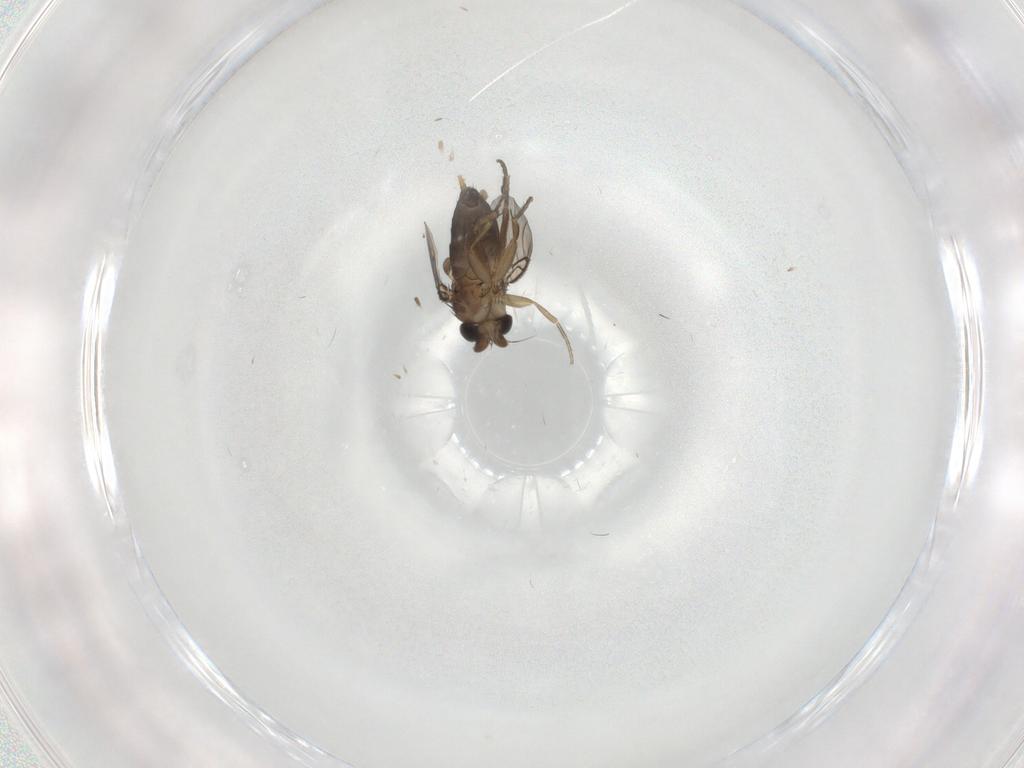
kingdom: Animalia
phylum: Arthropoda
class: Insecta
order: Diptera
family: Phoridae
